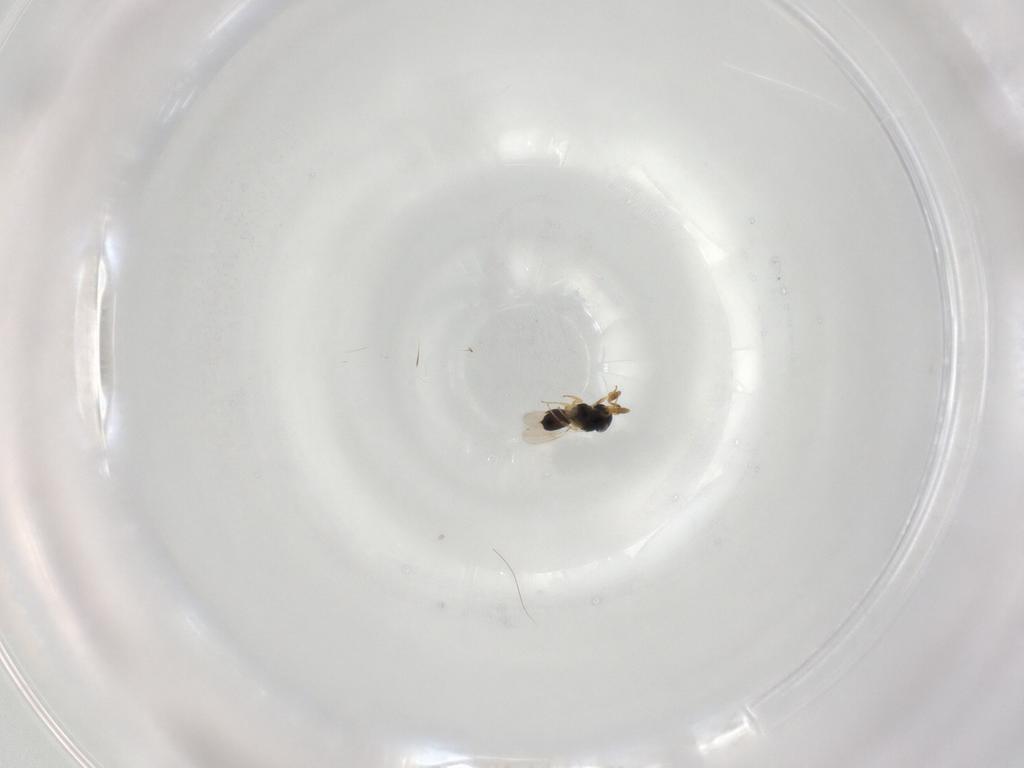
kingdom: Animalia
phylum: Arthropoda
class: Insecta
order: Hymenoptera
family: Scelionidae
